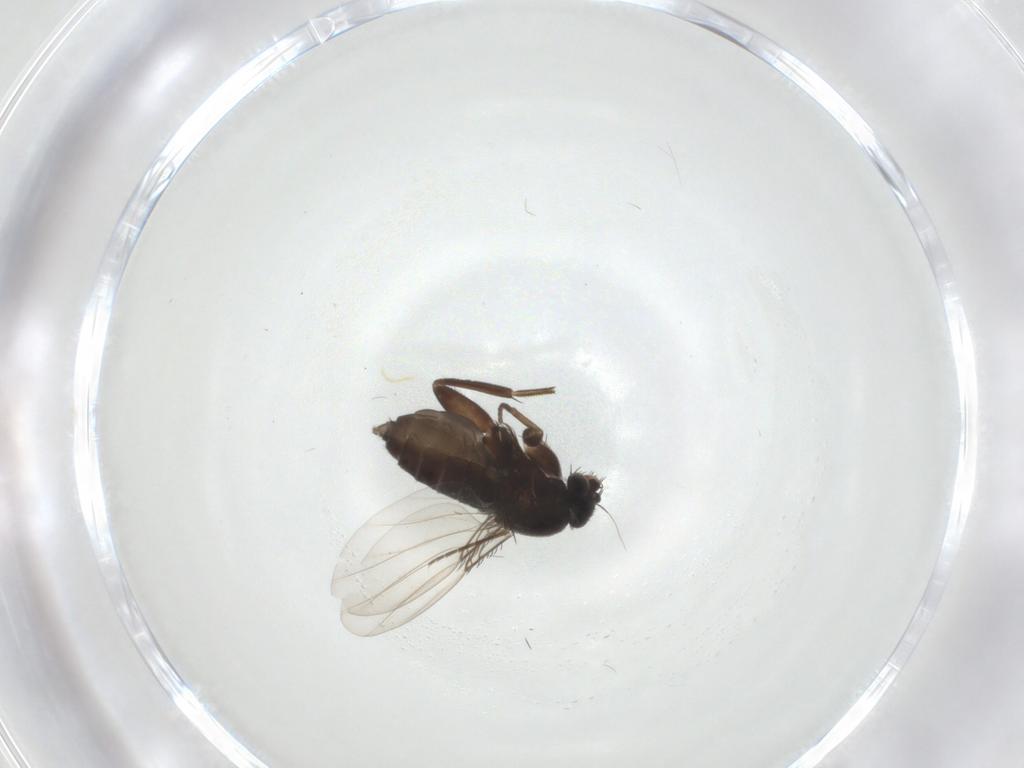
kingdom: Animalia
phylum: Arthropoda
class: Insecta
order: Diptera
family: Phoridae
